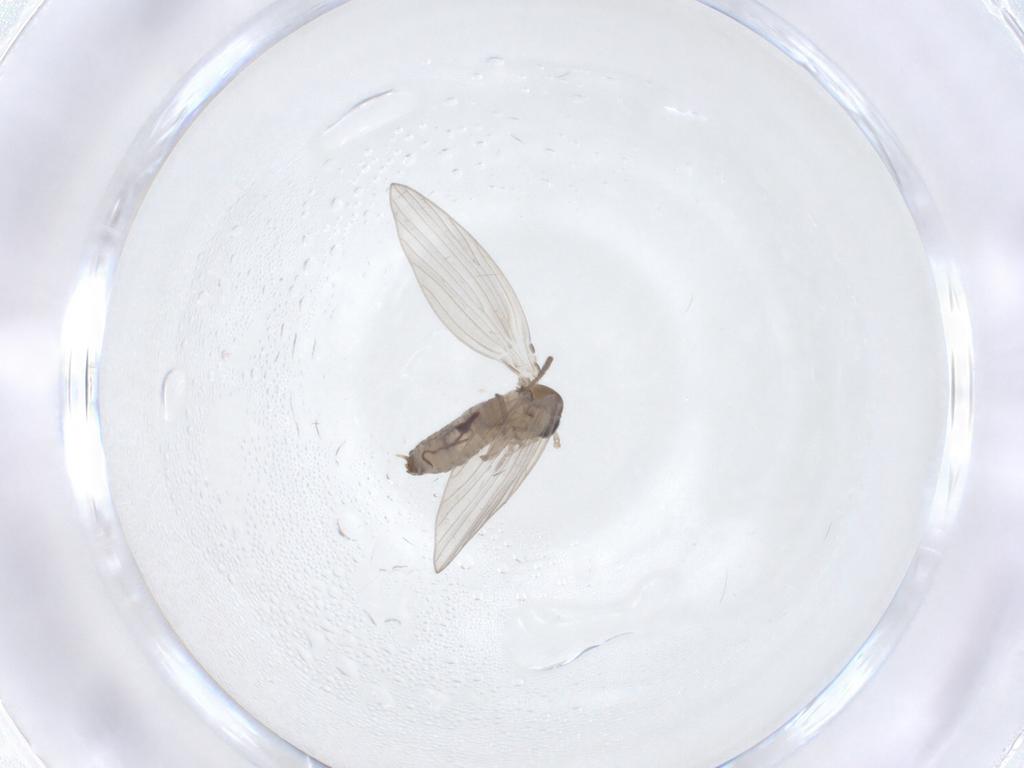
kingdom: Animalia
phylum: Arthropoda
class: Insecta
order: Diptera
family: Psychodidae
